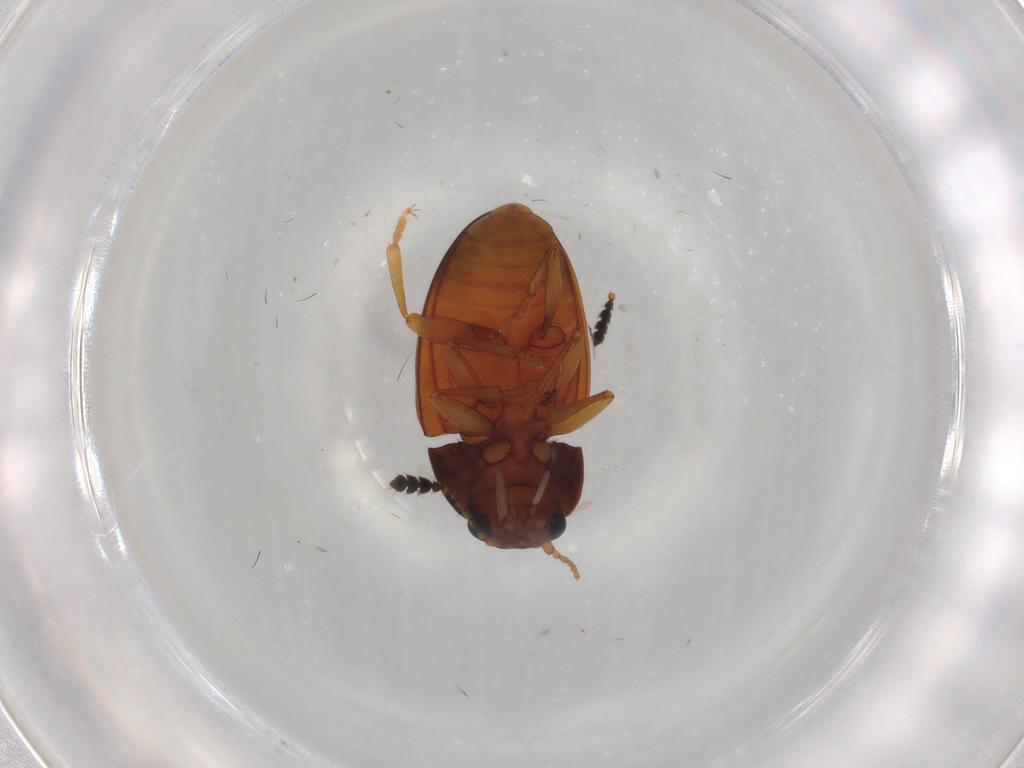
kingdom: Animalia
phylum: Arthropoda
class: Insecta
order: Coleoptera
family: Erotylidae
